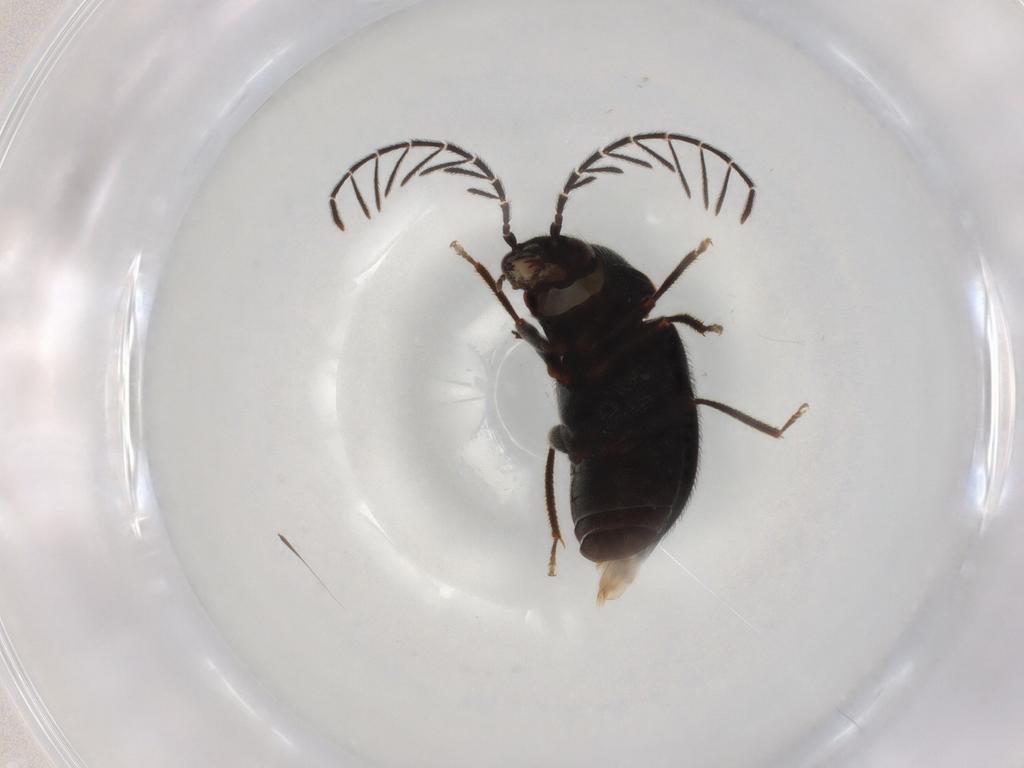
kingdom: Animalia
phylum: Arthropoda
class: Insecta
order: Coleoptera
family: Ptilodactylidae
